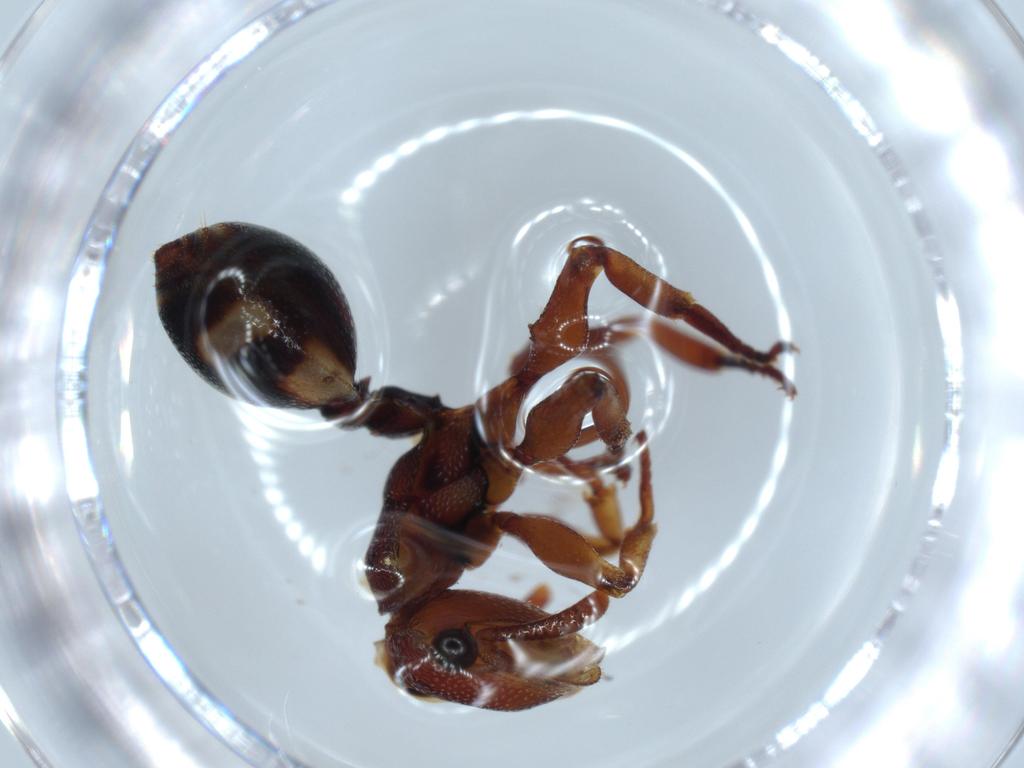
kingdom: Animalia
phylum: Arthropoda
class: Insecta
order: Hymenoptera
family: Formicidae
